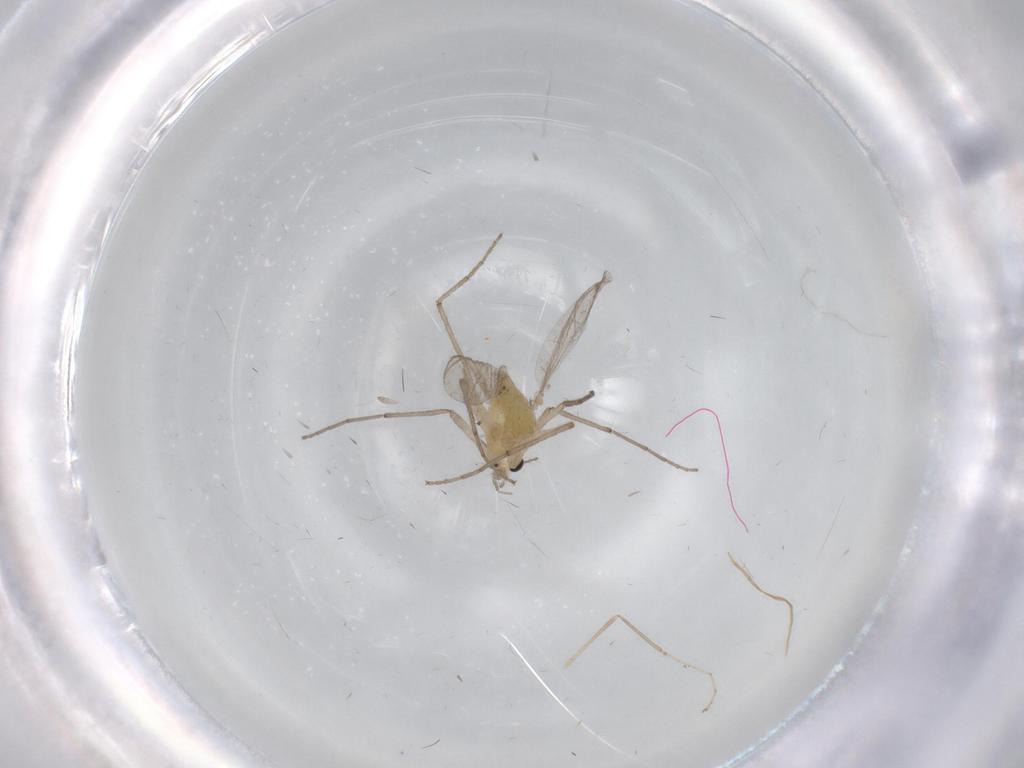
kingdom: Animalia
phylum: Arthropoda
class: Insecta
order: Diptera
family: Chironomidae
